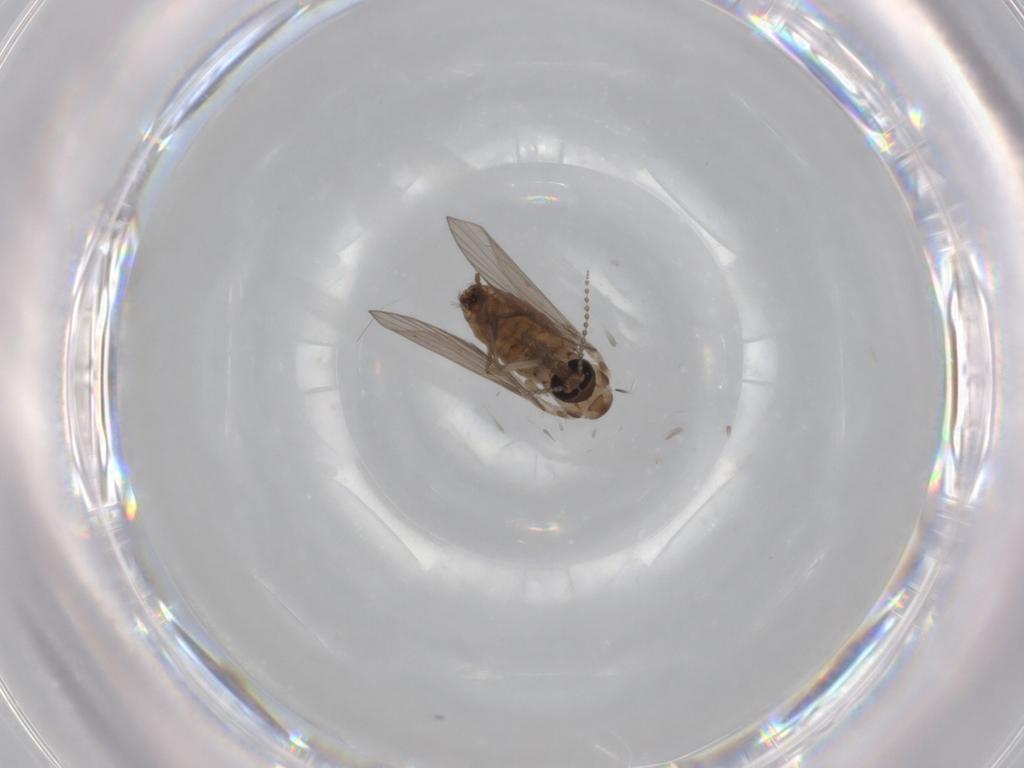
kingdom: Animalia
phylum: Arthropoda
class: Insecta
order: Diptera
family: Psychodidae
